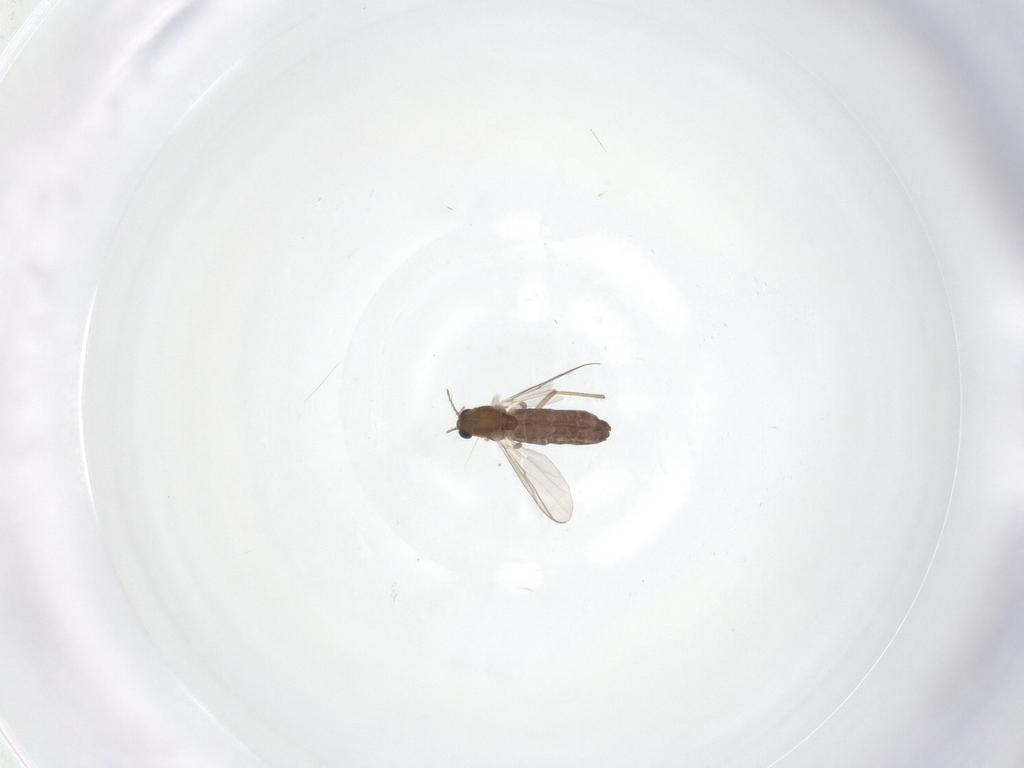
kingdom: Animalia
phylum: Arthropoda
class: Insecta
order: Diptera
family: Chironomidae
